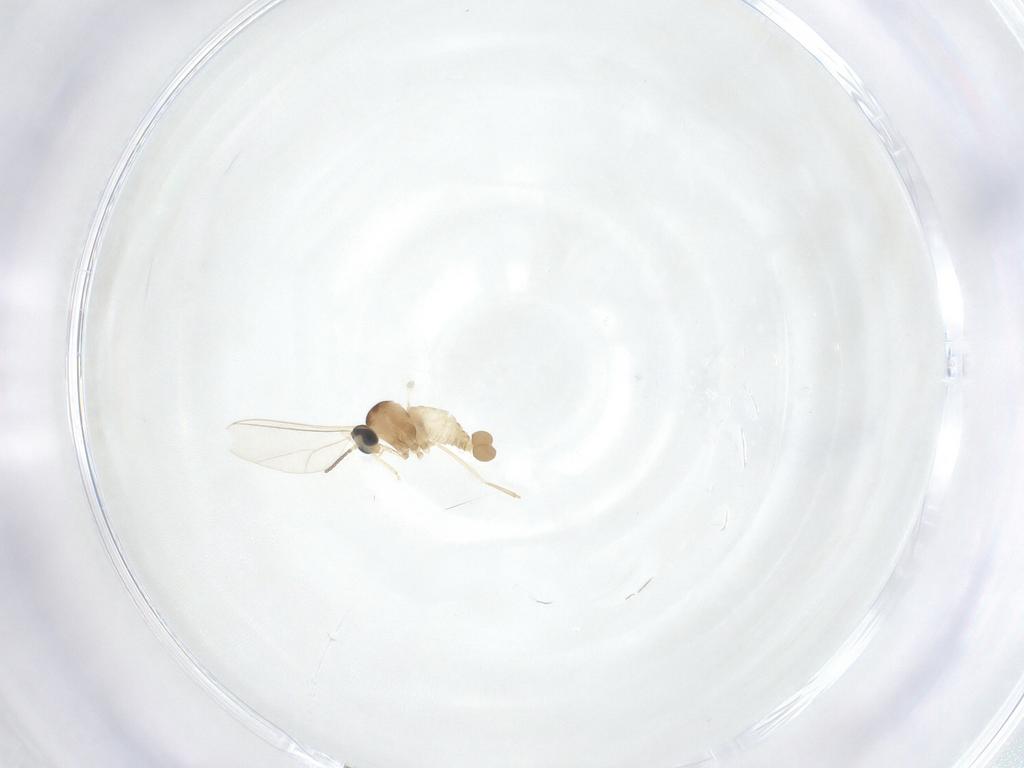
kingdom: Animalia
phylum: Arthropoda
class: Insecta
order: Diptera
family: Cecidomyiidae
